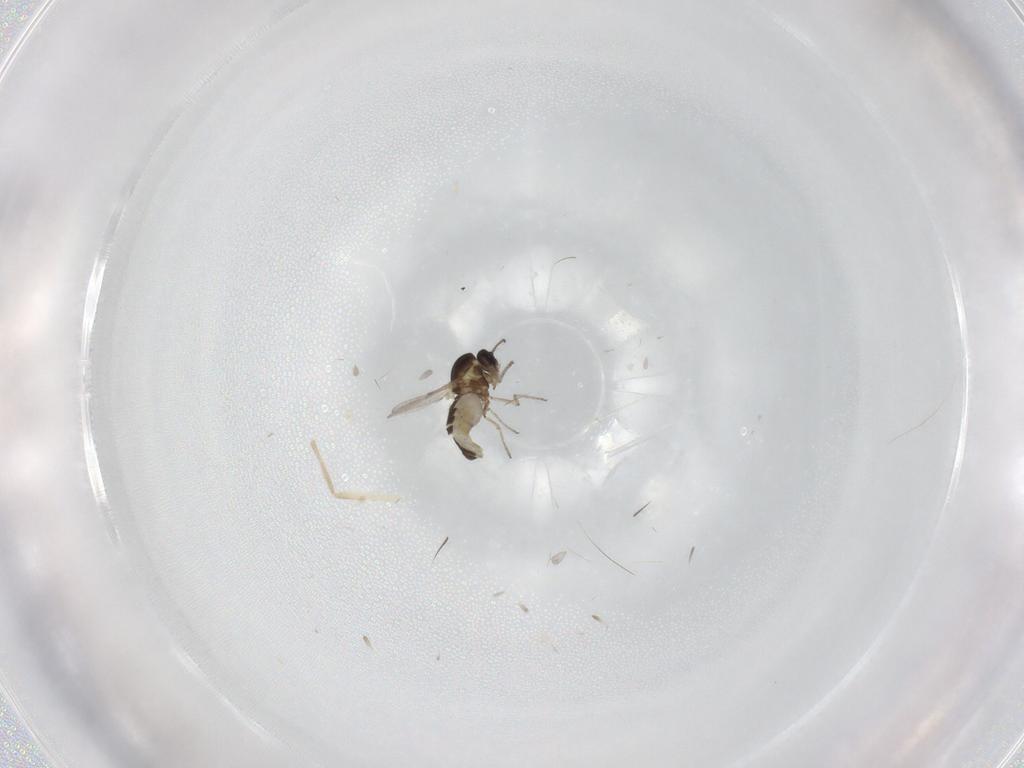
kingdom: Animalia
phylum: Arthropoda
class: Insecta
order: Diptera
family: Ceratopogonidae
